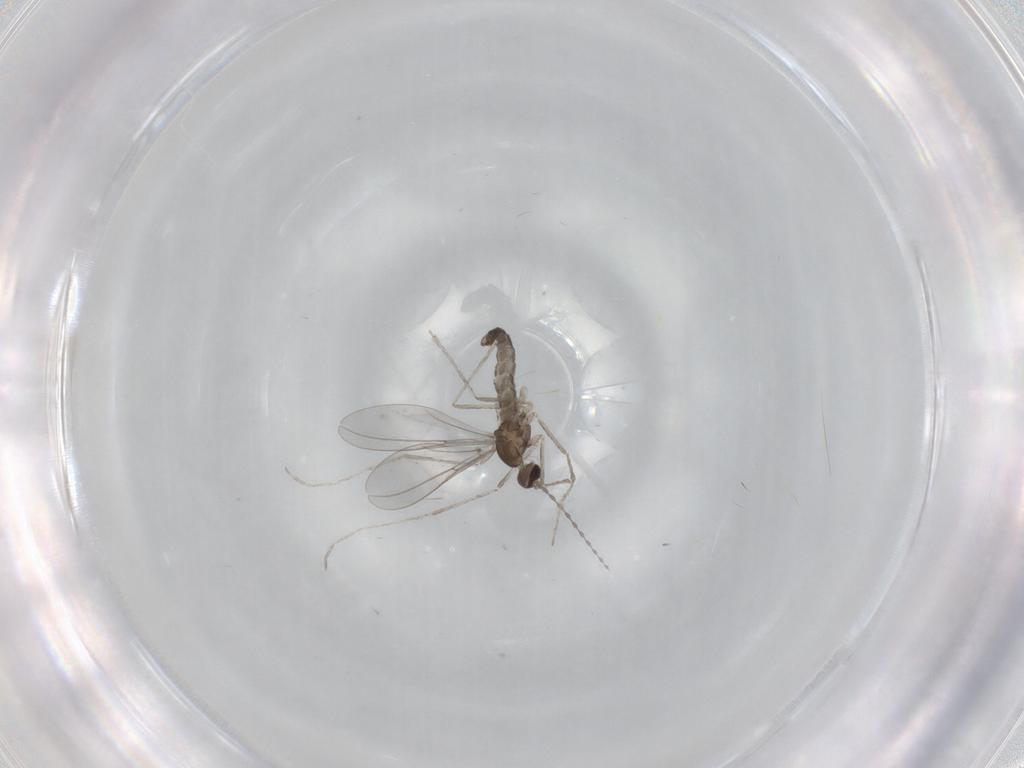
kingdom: Animalia
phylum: Arthropoda
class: Insecta
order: Diptera
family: Cecidomyiidae
